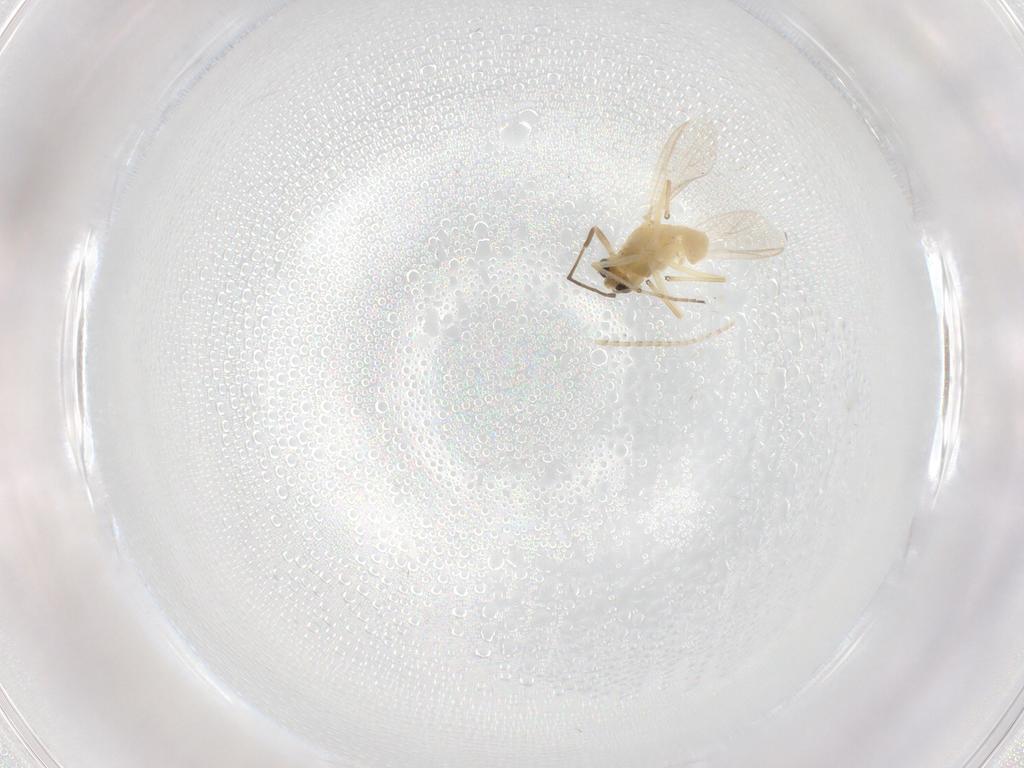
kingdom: Animalia
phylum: Arthropoda
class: Insecta
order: Diptera
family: Chironomidae
